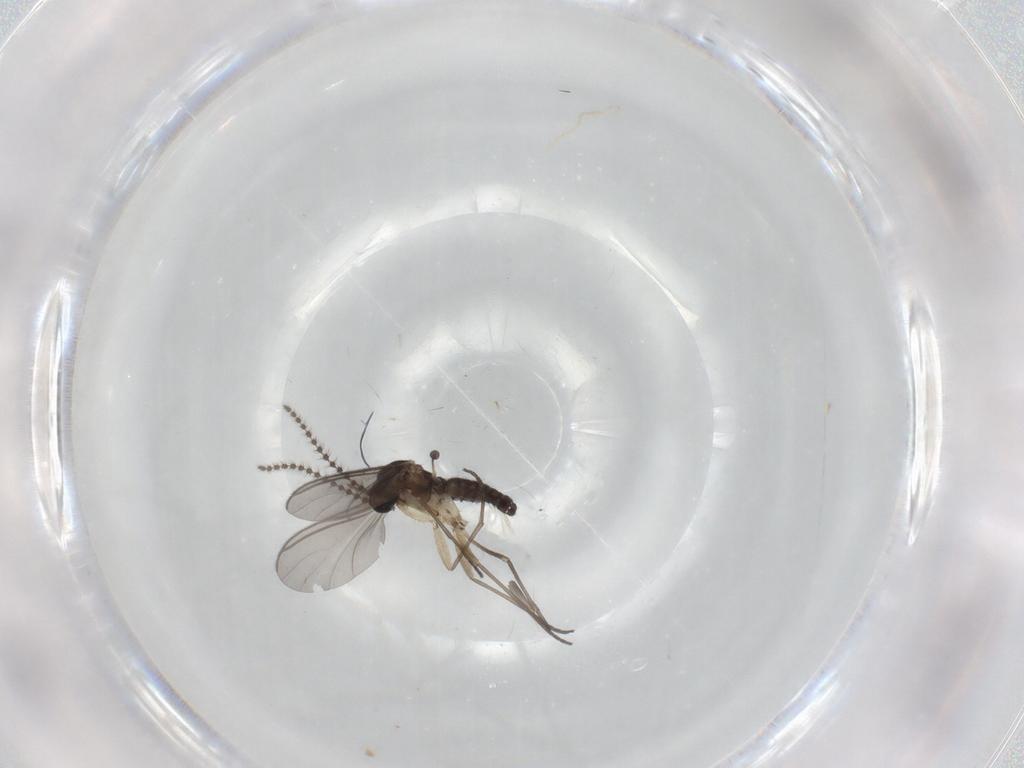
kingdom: Animalia
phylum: Arthropoda
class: Insecta
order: Diptera
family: Sciaridae
